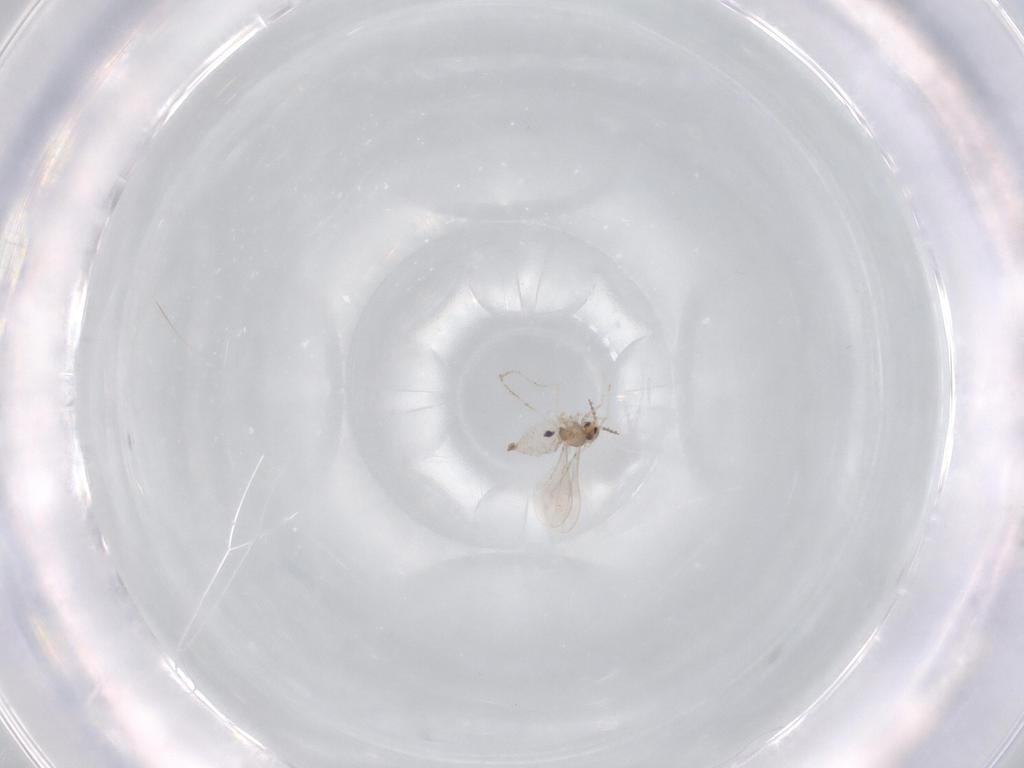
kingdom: Animalia
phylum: Arthropoda
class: Insecta
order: Diptera
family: Cecidomyiidae
